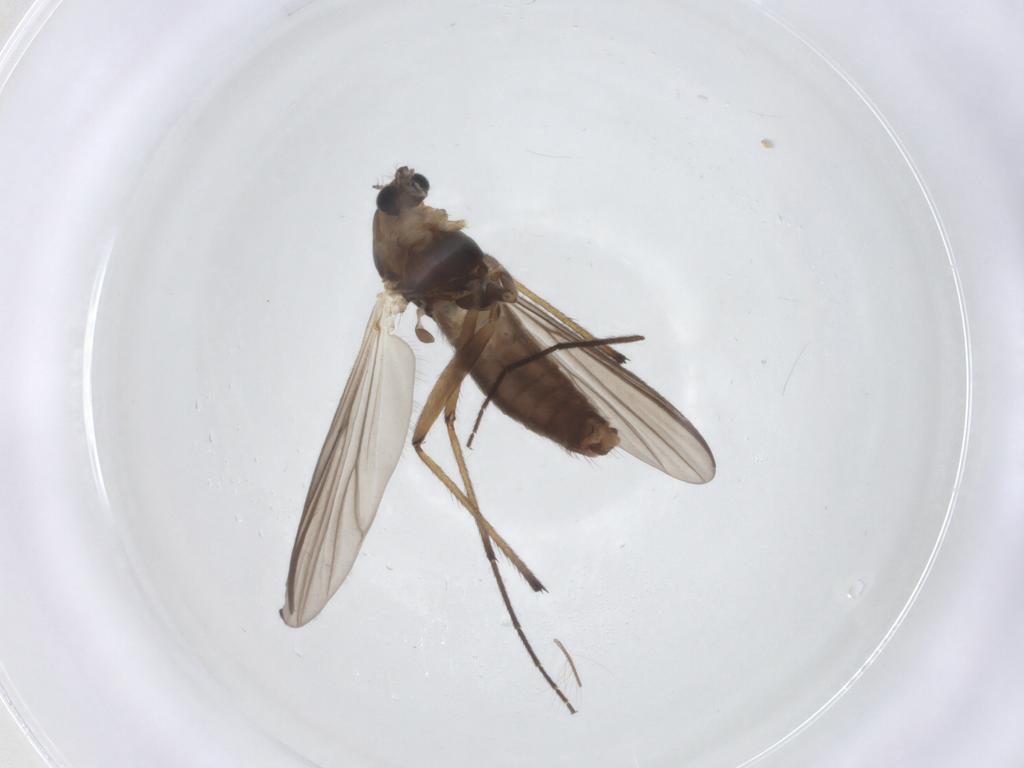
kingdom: Animalia
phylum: Arthropoda
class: Insecta
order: Diptera
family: Chironomidae
